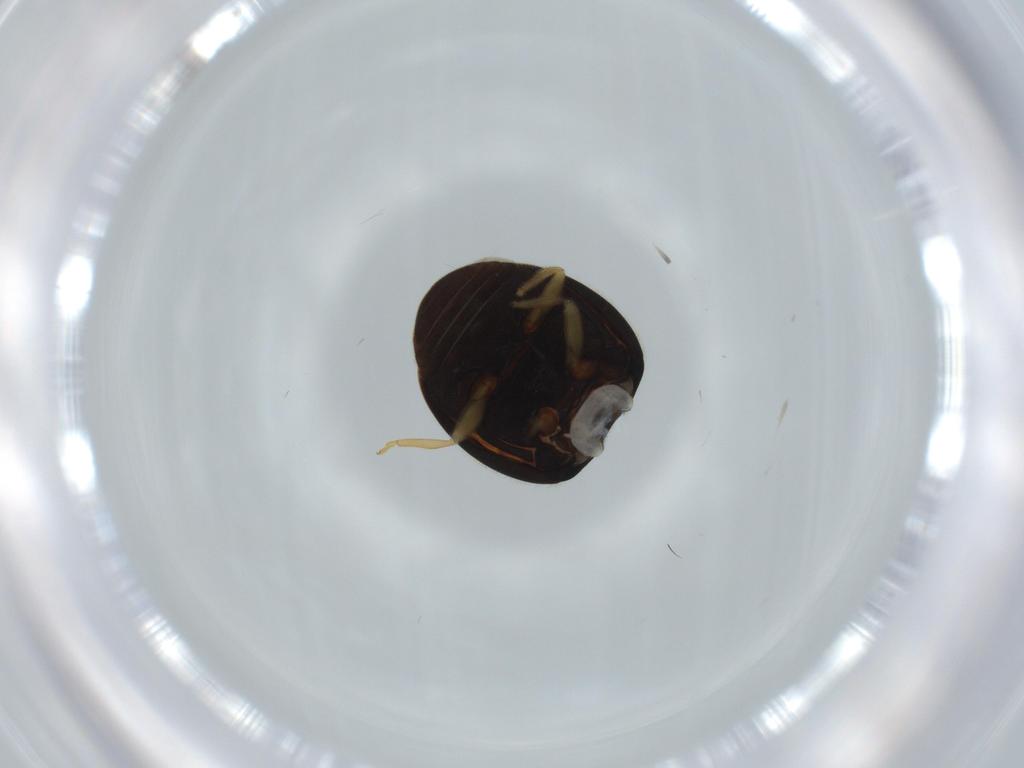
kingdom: Animalia
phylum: Arthropoda
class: Insecta
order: Coleoptera
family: Coccinellidae
